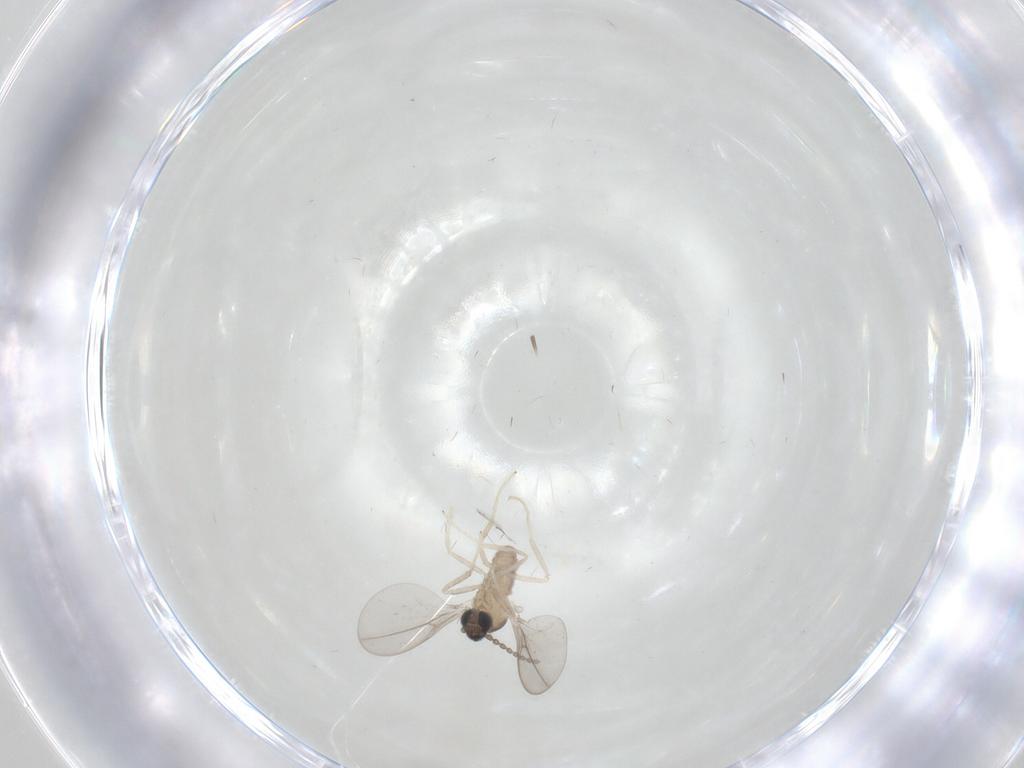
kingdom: Animalia
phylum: Arthropoda
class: Insecta
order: Diptera
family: Cecidomyiidae
